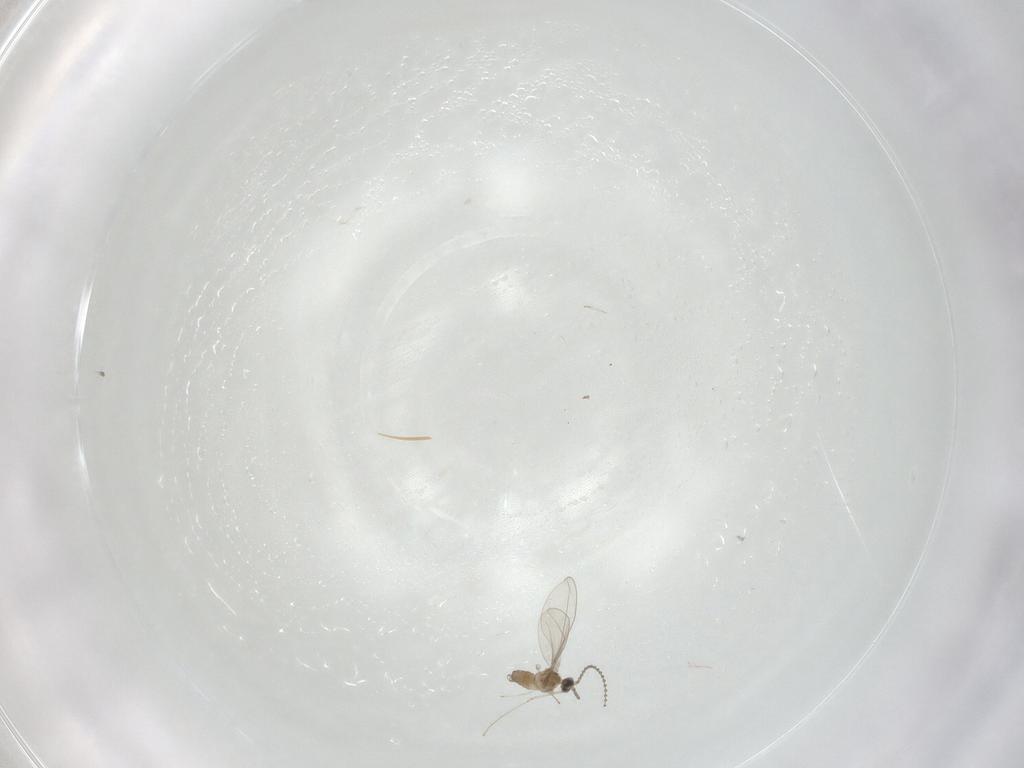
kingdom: Animalia
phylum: Arthropoda
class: Insecta
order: Diptera
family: Cecidomyiidae
